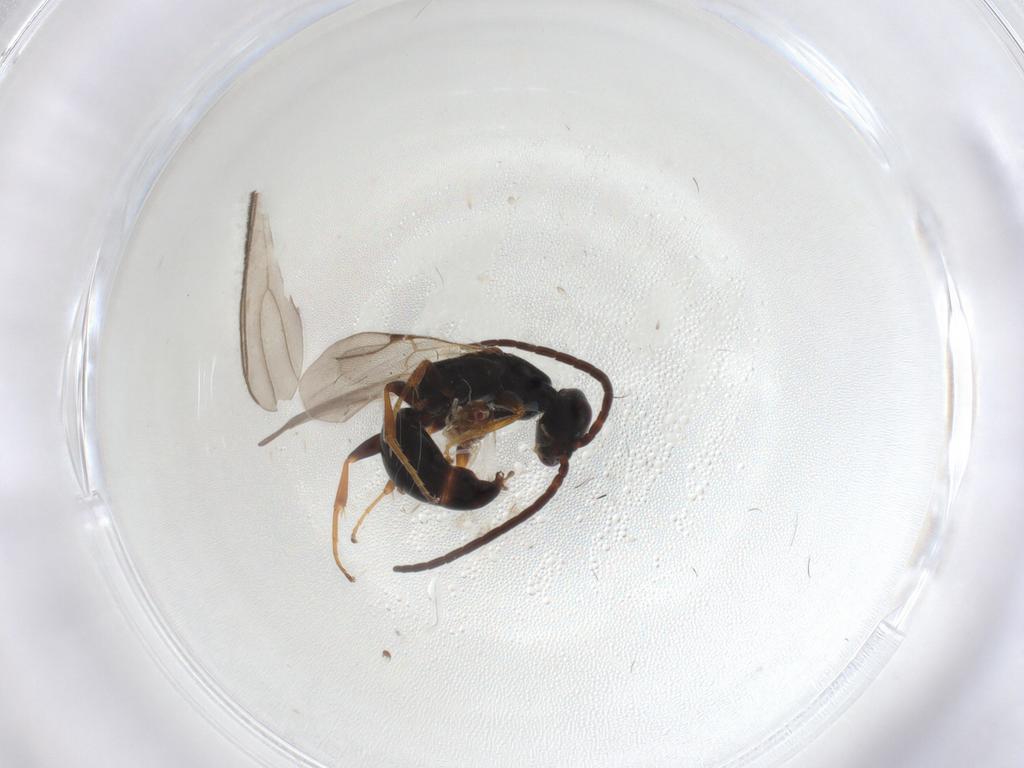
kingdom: Animalia
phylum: Arthropoda
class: Insecta
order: Hymenoptera
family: Bethylidae
